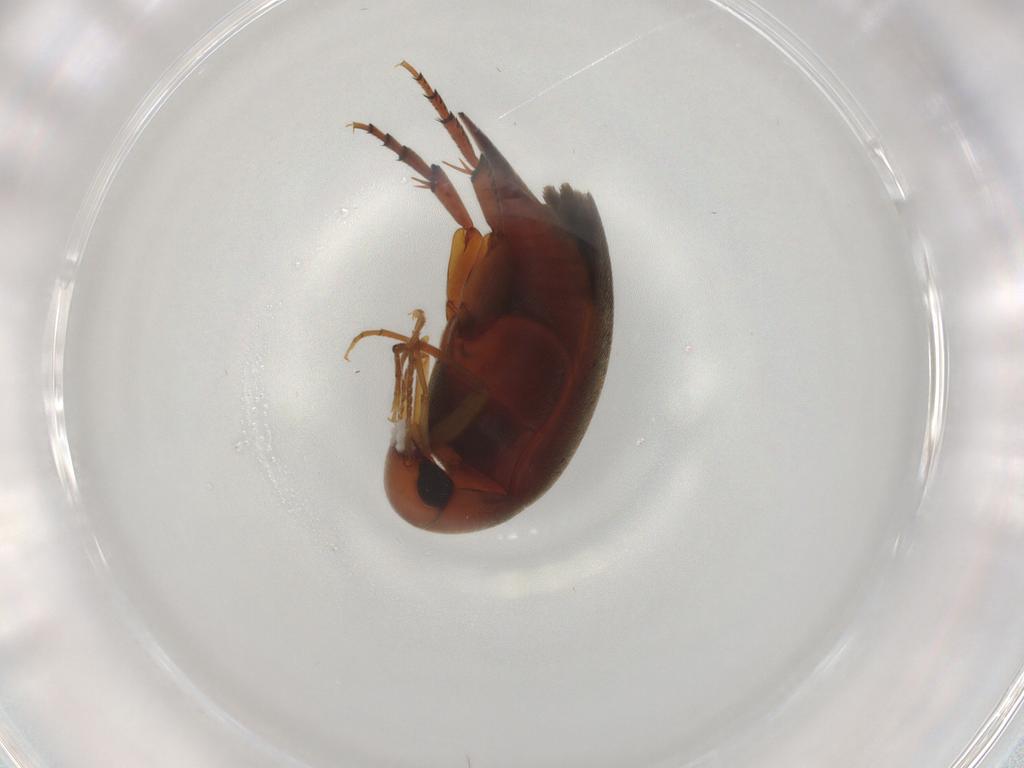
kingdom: Animalia
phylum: Arthropoda
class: Insecta
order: Coleoptera
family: Mordellidae
